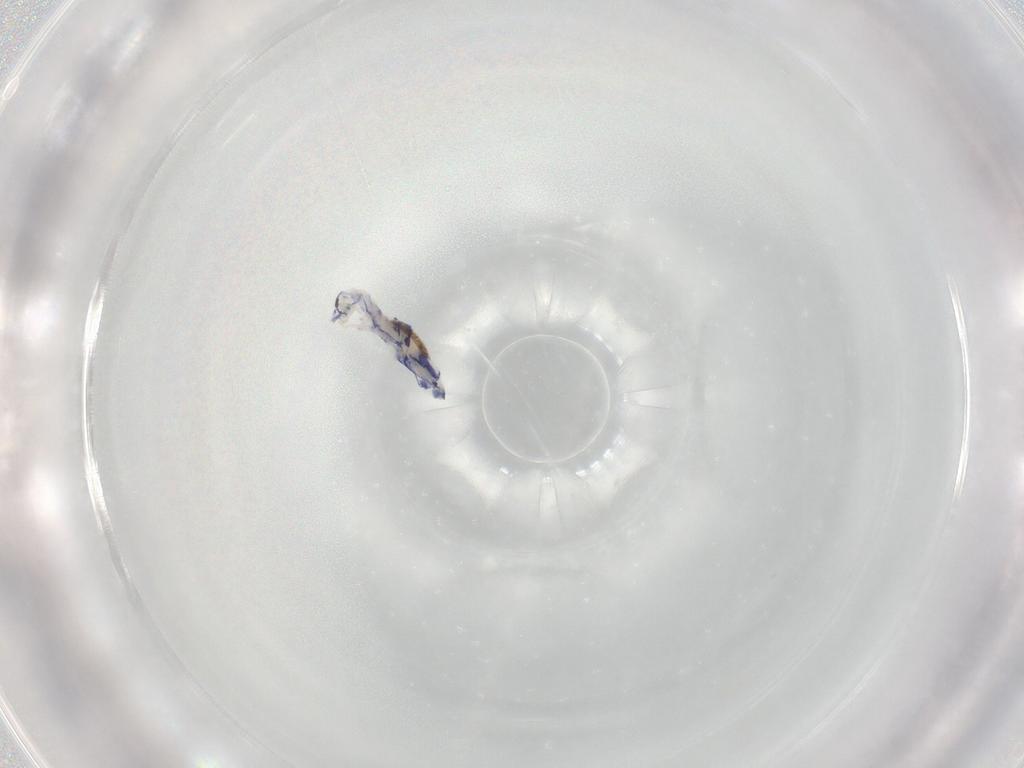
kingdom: Animalia
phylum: Arthropoda
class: Collembola
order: Entomobryomorpha
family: Entomobryidae
